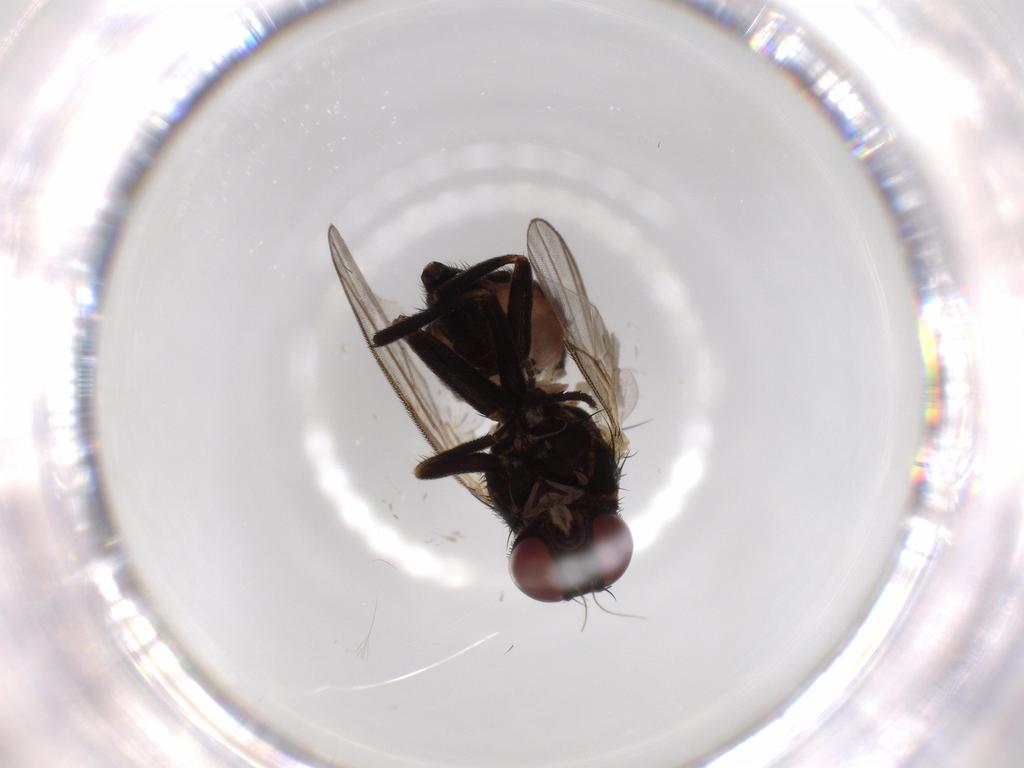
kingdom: Animalia
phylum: Arthropoda
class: Insecta
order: Diptera
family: Agromyzidae
